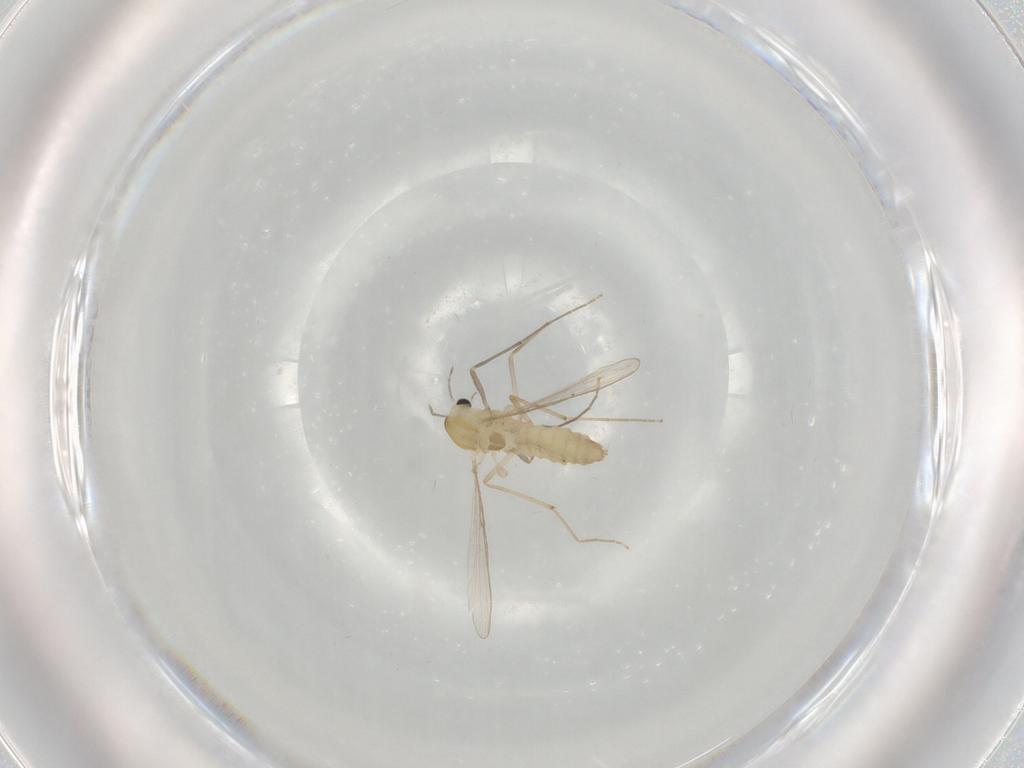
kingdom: Animalia
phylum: Arthropoda
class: Insecta
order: Diptera
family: Chironomidae
